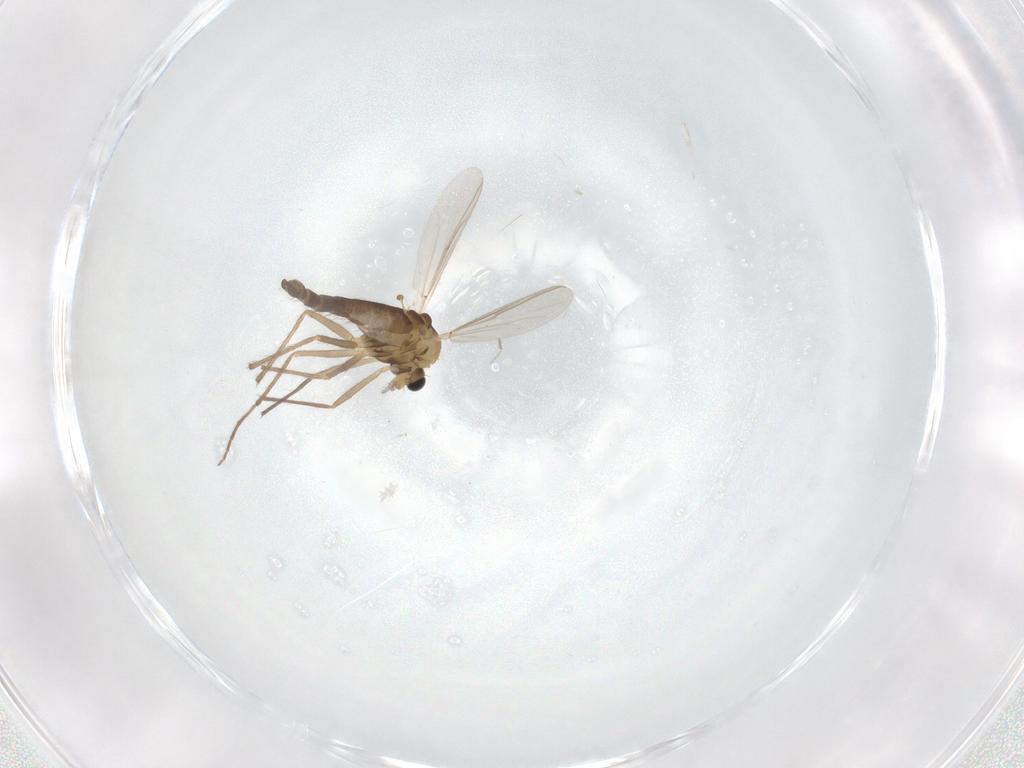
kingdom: Animalia
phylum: Arthropoda
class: Insecta
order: Diptera
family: Chironomidae
